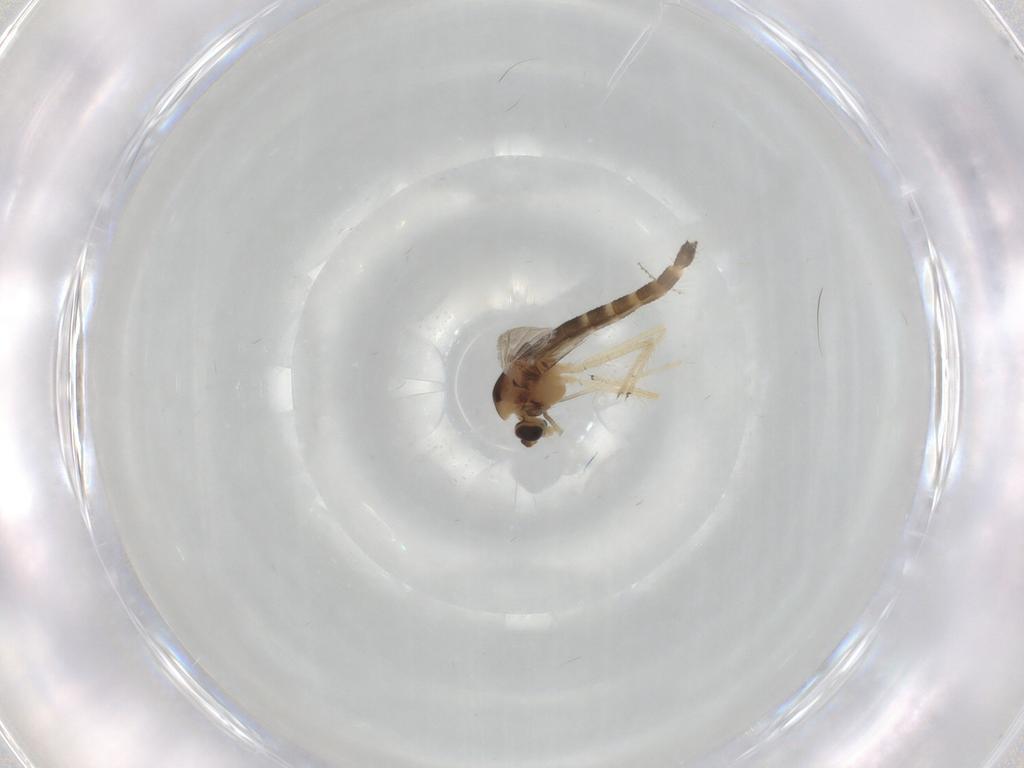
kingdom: Animalia
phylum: Arthropoda
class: Insecta
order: Diptera
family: Chironomidae
